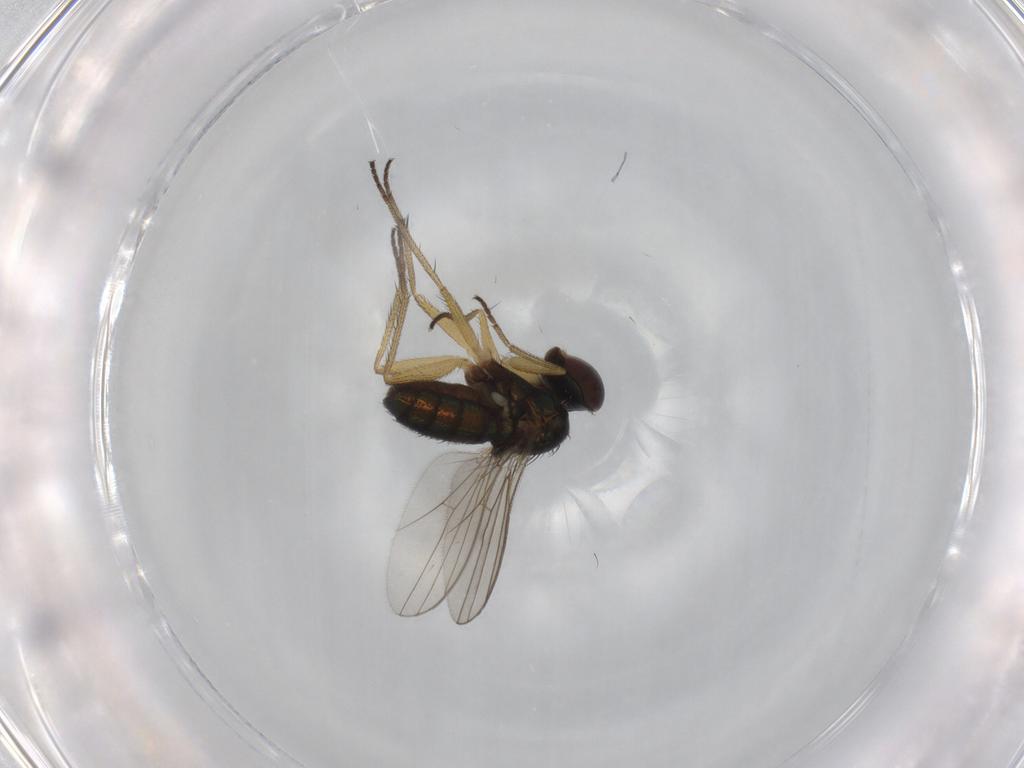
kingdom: Animalia
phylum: Arthropoda
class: Insecta
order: Diptera
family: Dolichopodidae
